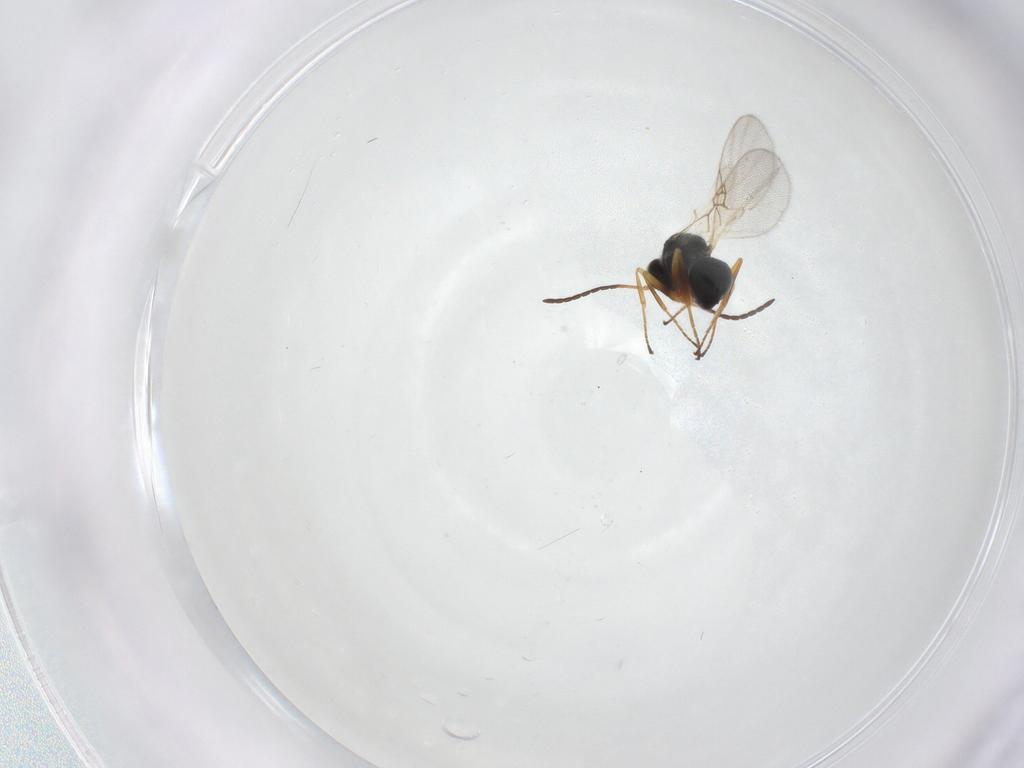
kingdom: Animalia
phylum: Arthropoda
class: Insecta
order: Hymenoptera
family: Figitidae
